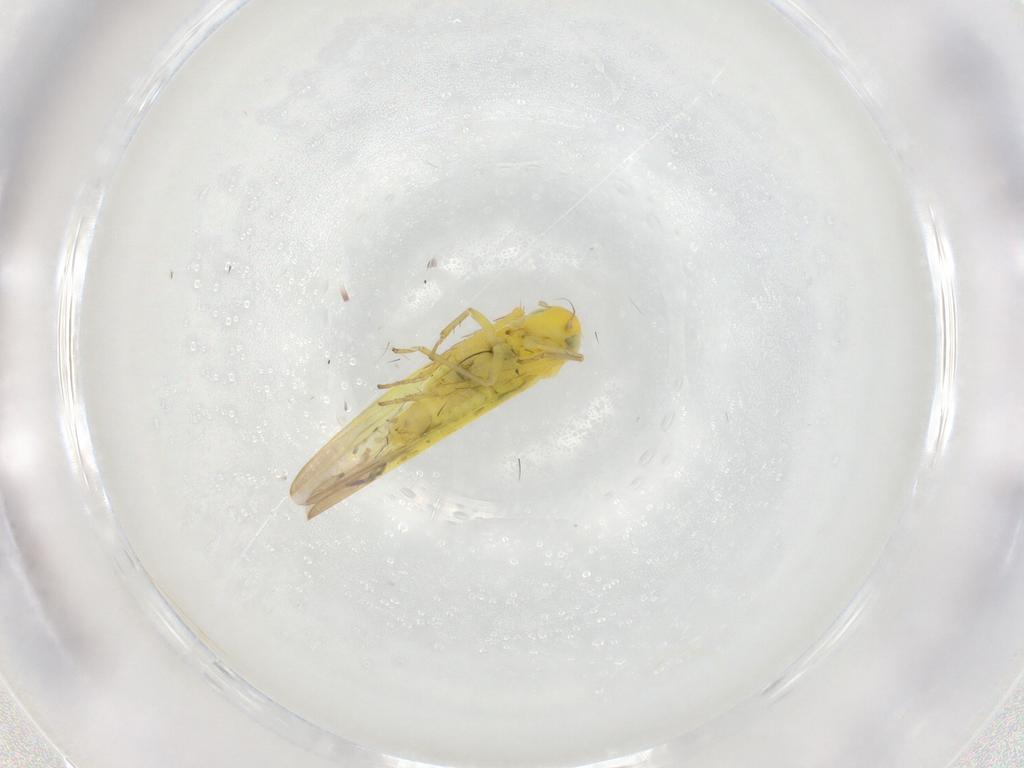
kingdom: Animalia
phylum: Arthropoda
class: Insecta
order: Hemiptera
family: Cicadellidae
